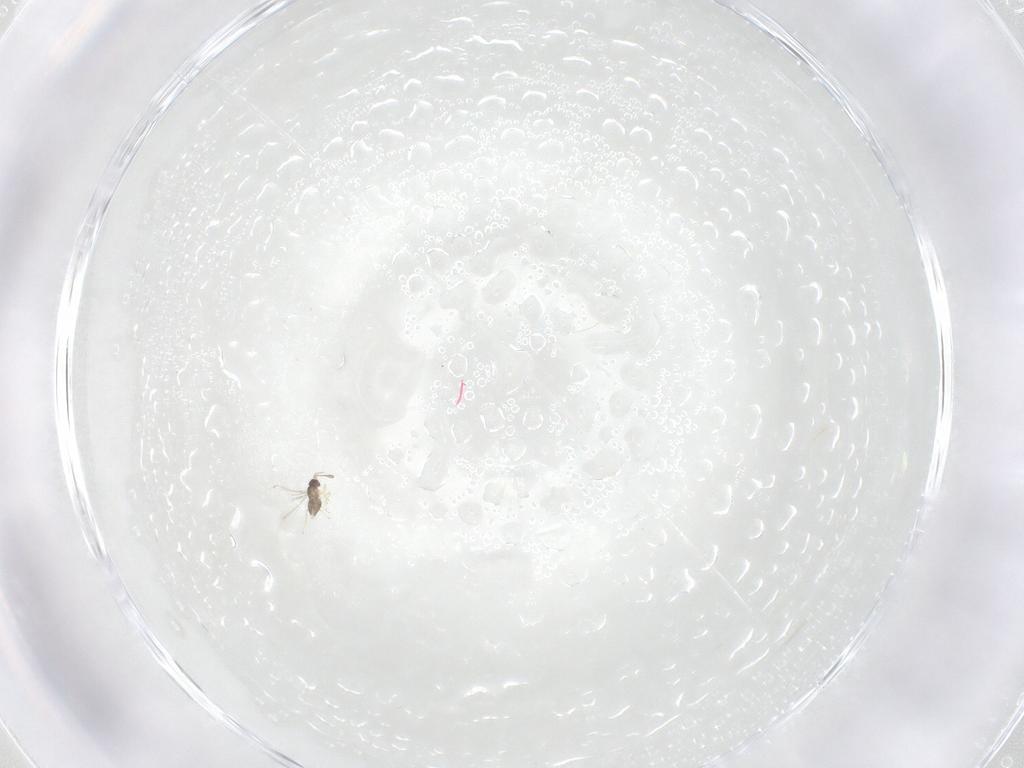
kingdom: Animalia
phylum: Arthropoda
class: Insecta
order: Hymenoptera
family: Mymaridae
